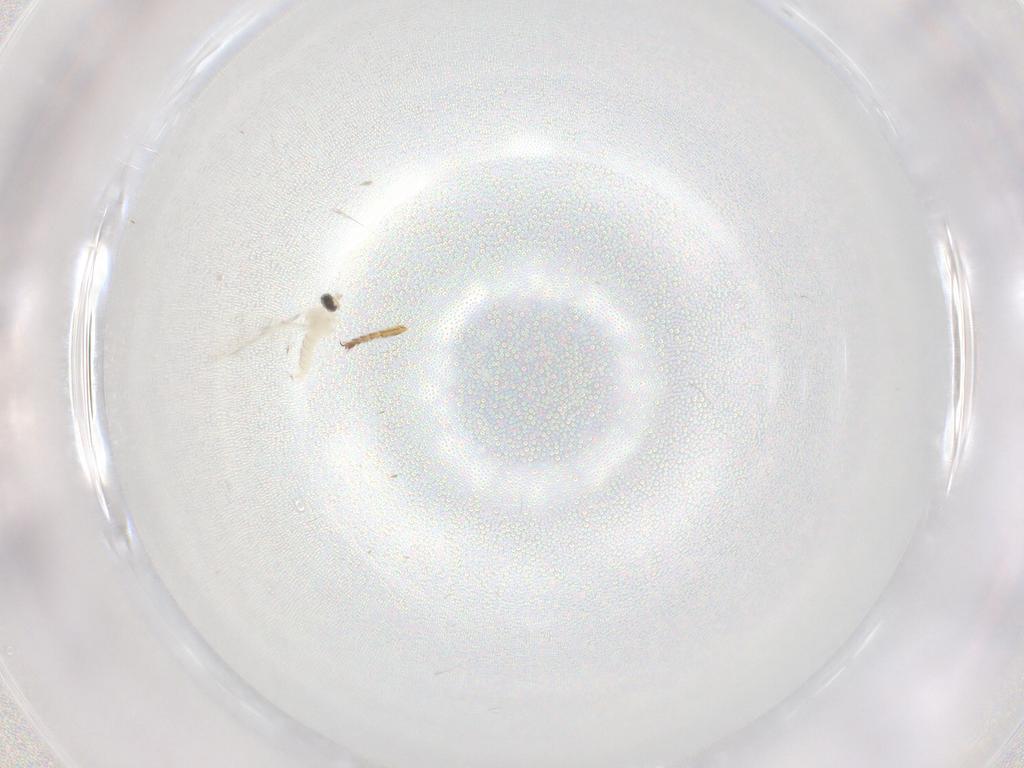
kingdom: Animalia
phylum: Arthropoda
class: Insecta
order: Diptera
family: Cecidomyiidae
